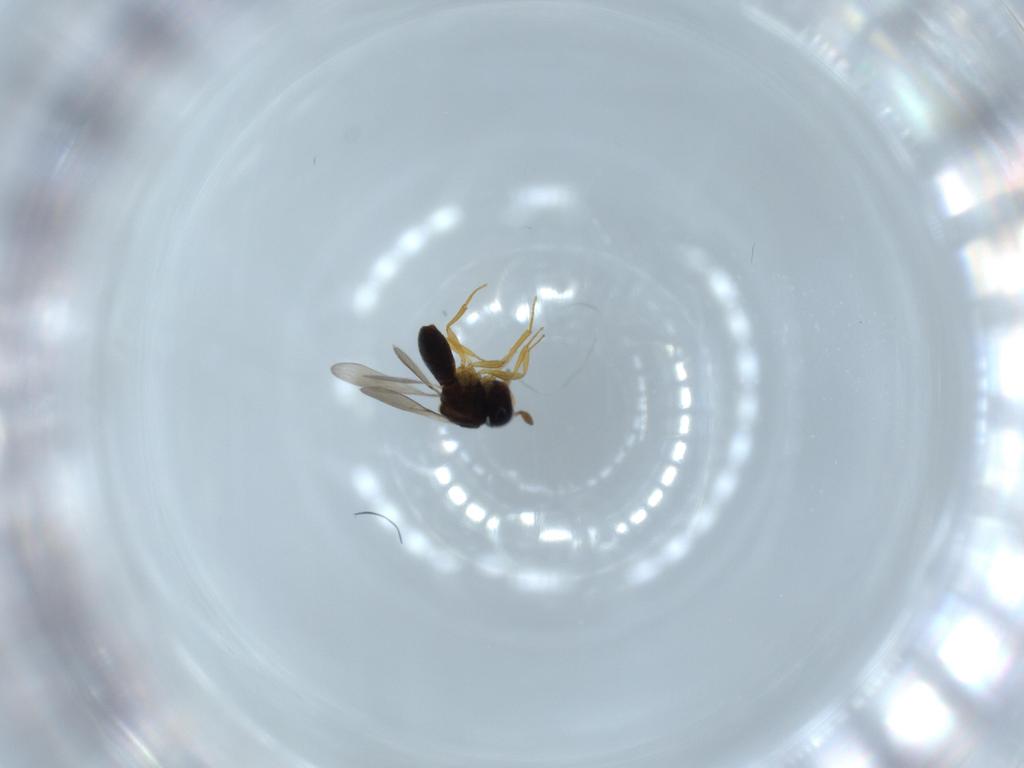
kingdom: Animalia
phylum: Arthropoda
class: Insecta
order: Hymenoptera
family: Scelionidae
